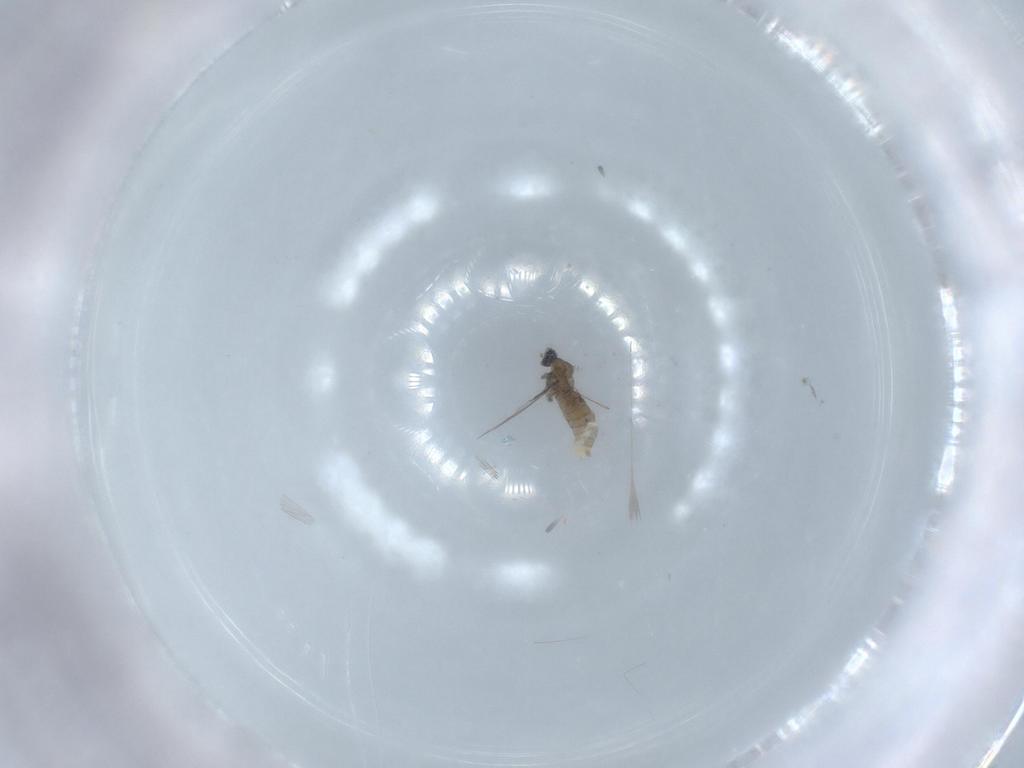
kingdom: Animalia
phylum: Arthropoda
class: Insecta
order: Diptera
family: Cecidomyiidae
